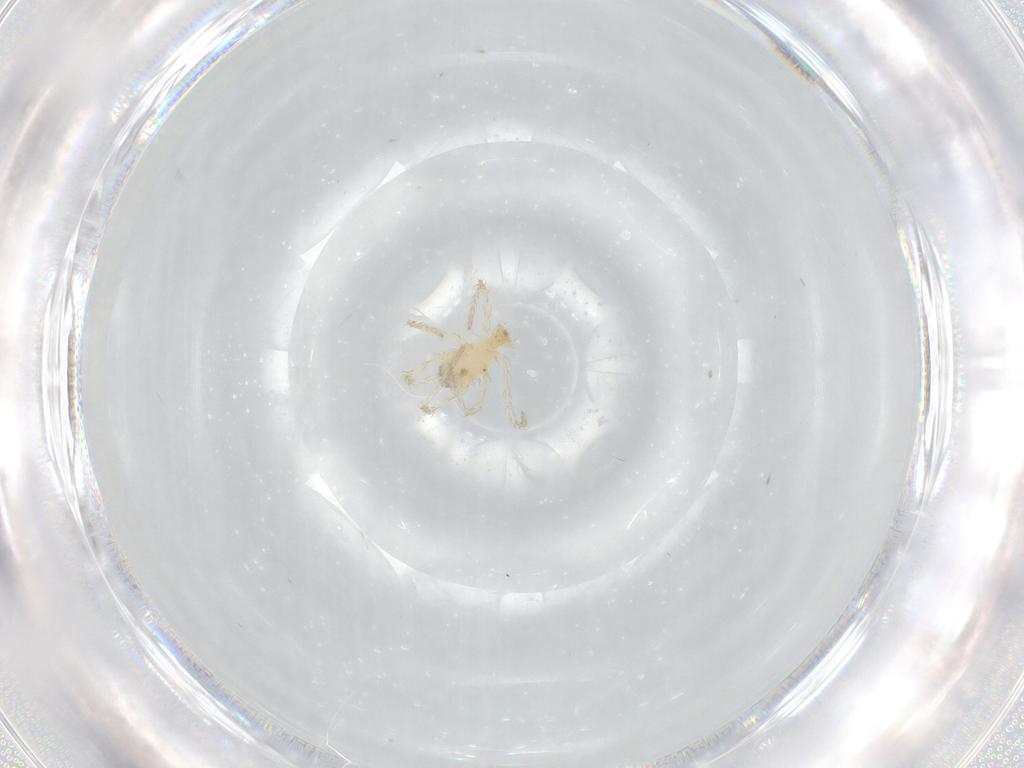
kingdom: Animalia
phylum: Arthropoda
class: Arachnida
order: Trombidiformes
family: Erythraeidae
